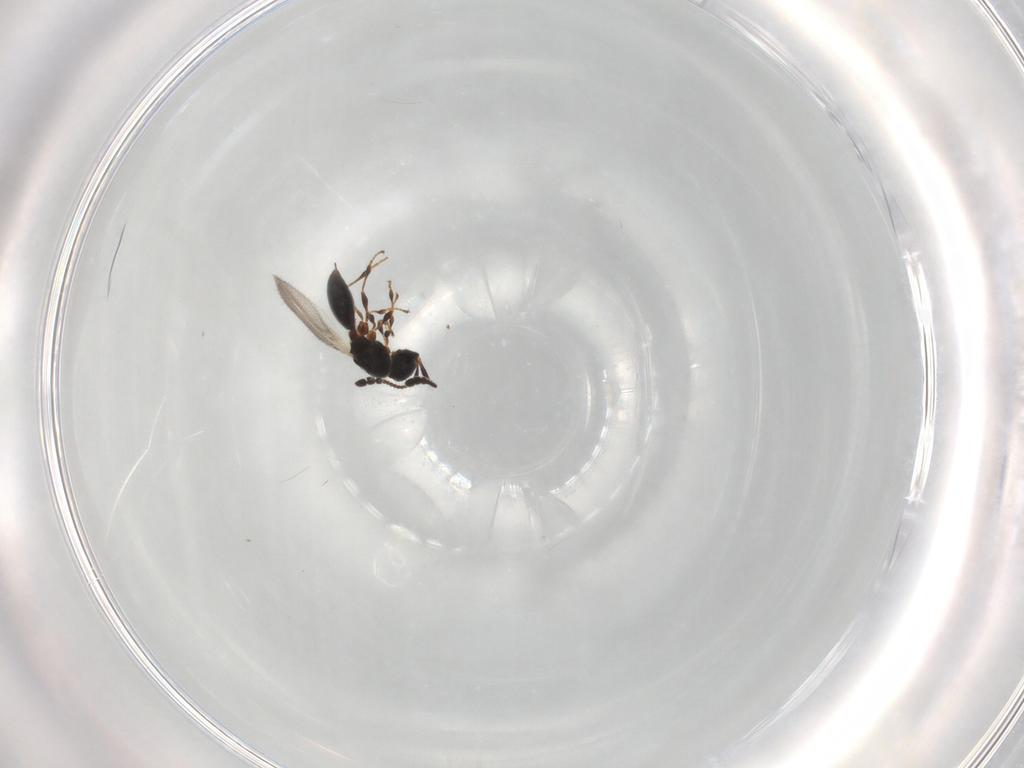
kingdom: Animalia
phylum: Arthropoda
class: Insecta
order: Hymenoptera
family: Diapriidae
